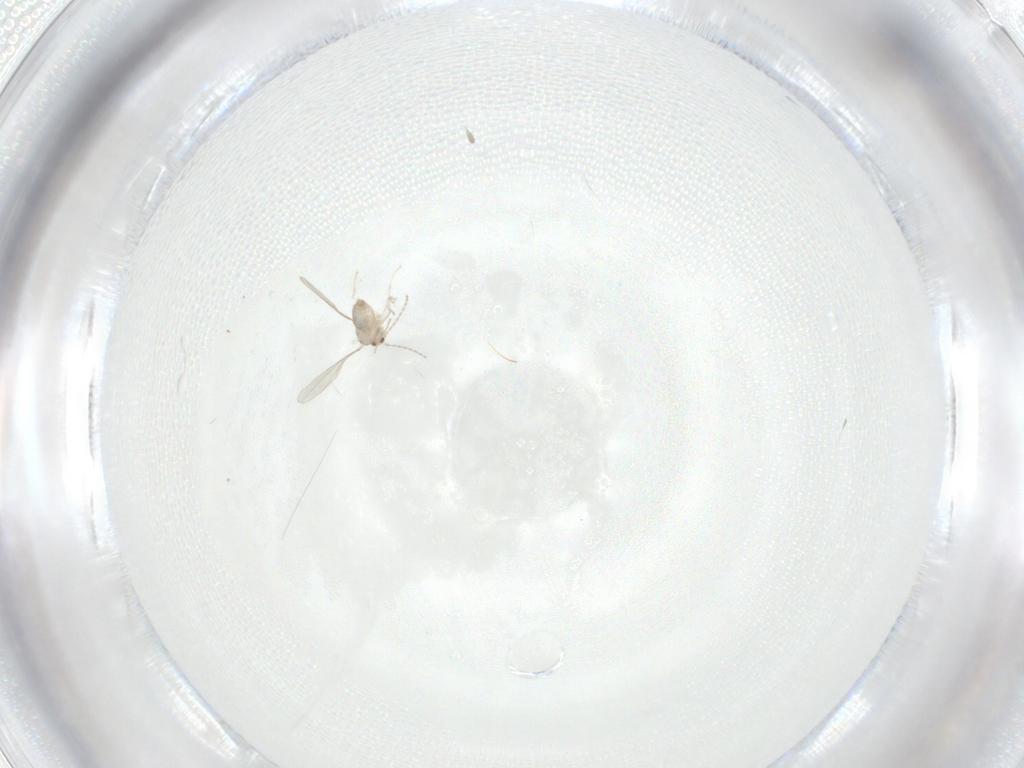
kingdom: Animalia
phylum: Arthropoda
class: Insecta
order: Diptera
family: Cecidomyiidae
